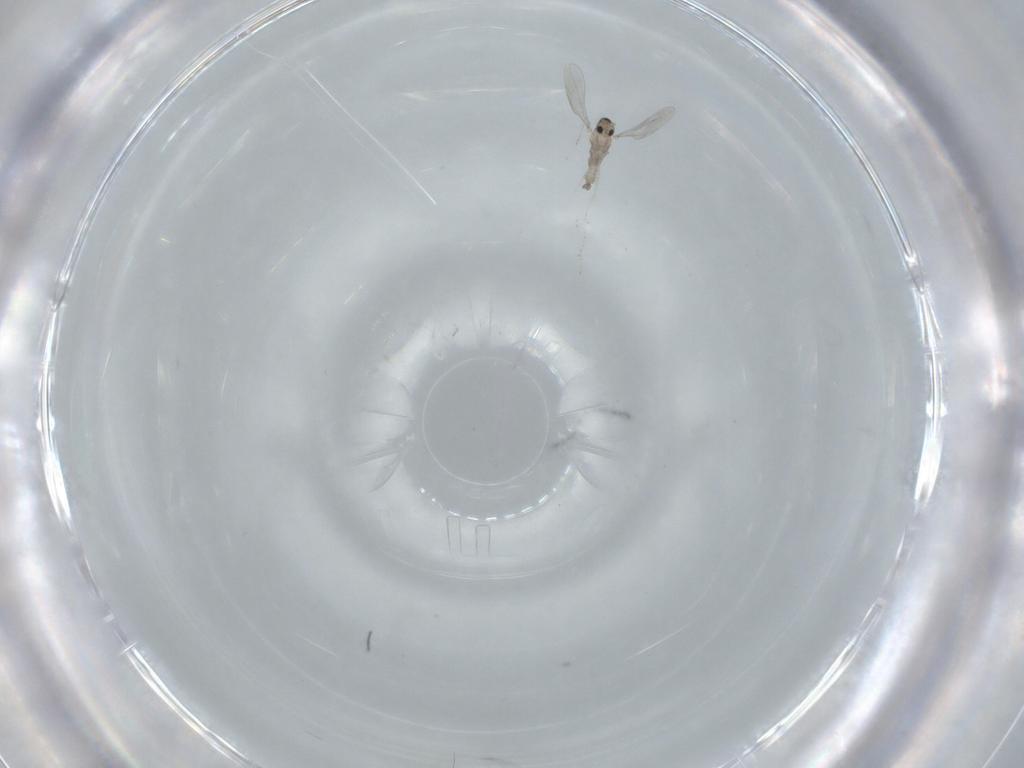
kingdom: Animalia
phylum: Arthropoda
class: Insecta
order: Diptera
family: Cecidomyiidae
